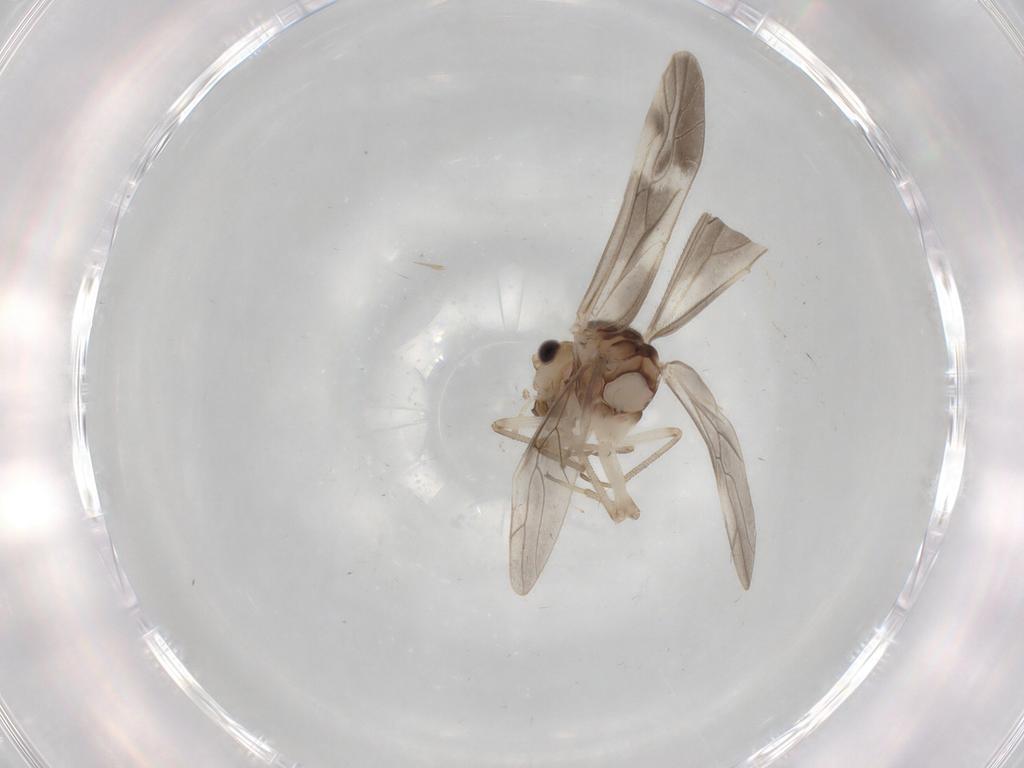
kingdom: Animalia
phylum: Arthropoda
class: Insecta
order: Psocodea
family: Caeciliusidae
